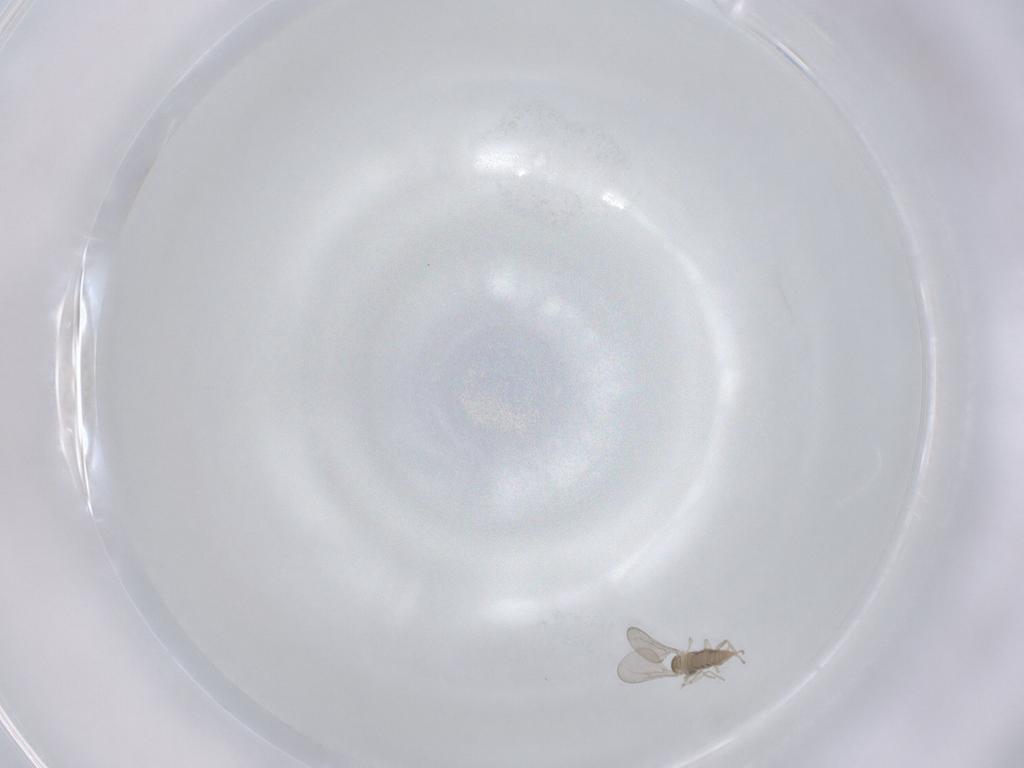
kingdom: Animalia
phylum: Arthropoda
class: Insecta
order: Diptera
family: Cecidomyiidae
